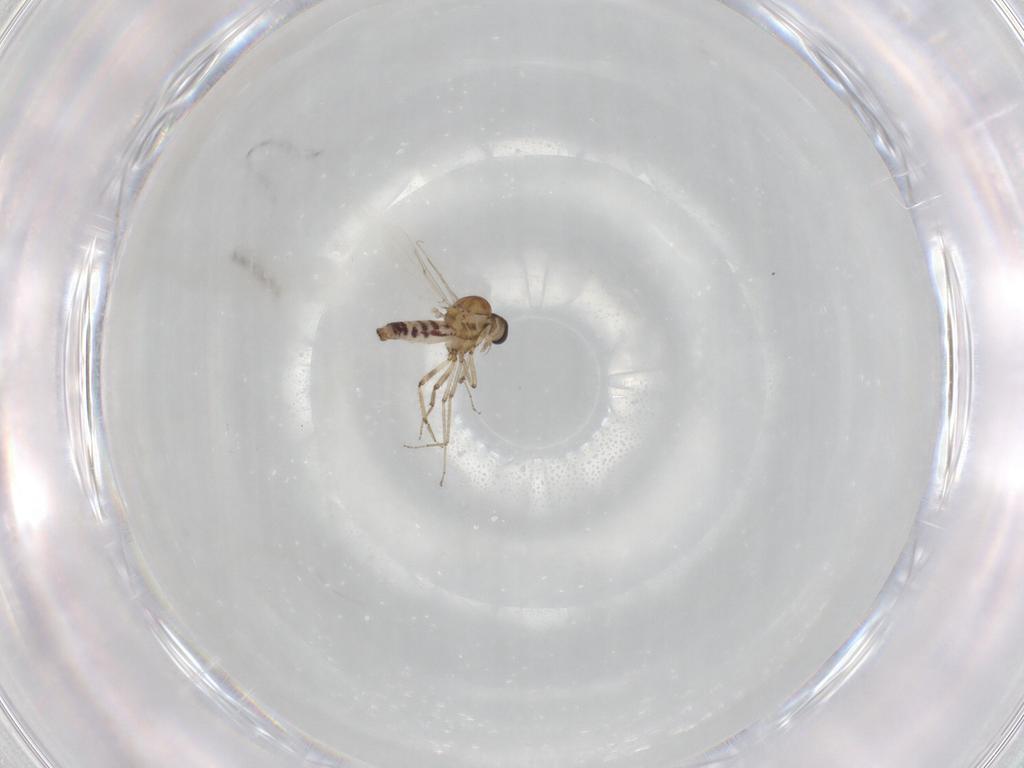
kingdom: Animalia
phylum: Arthropoda
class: Insecta
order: Diptera
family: Ceratopogonidae
